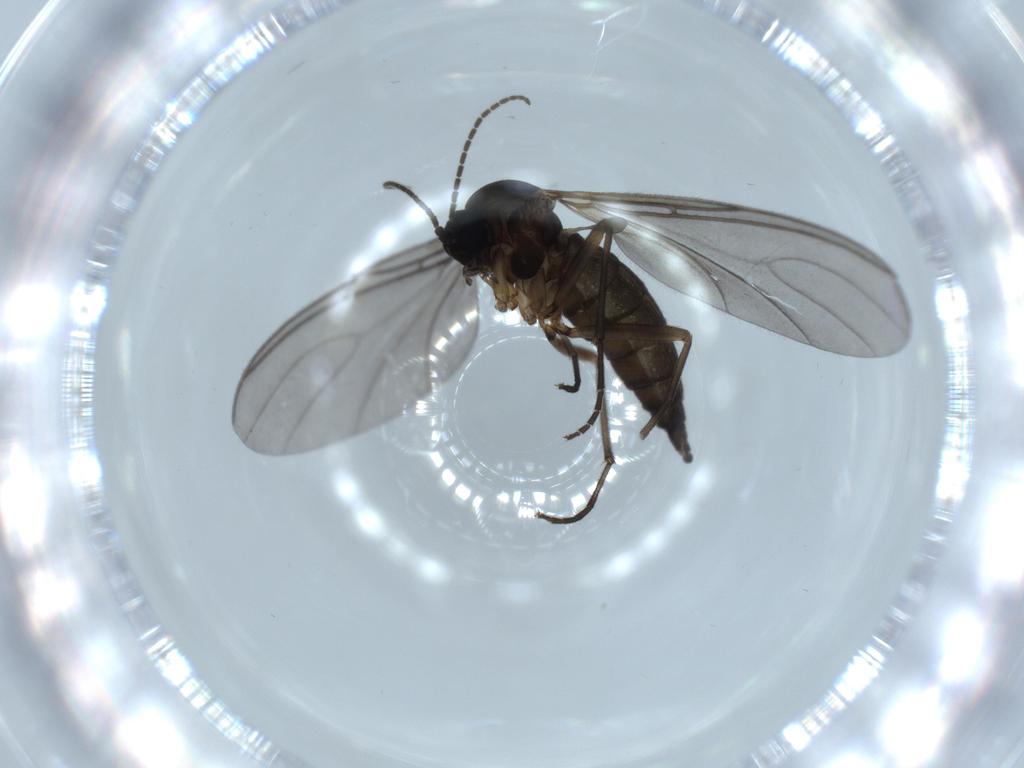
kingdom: Animalia
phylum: Arthropoda
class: Insecta
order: Diptera
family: Sciaridae
